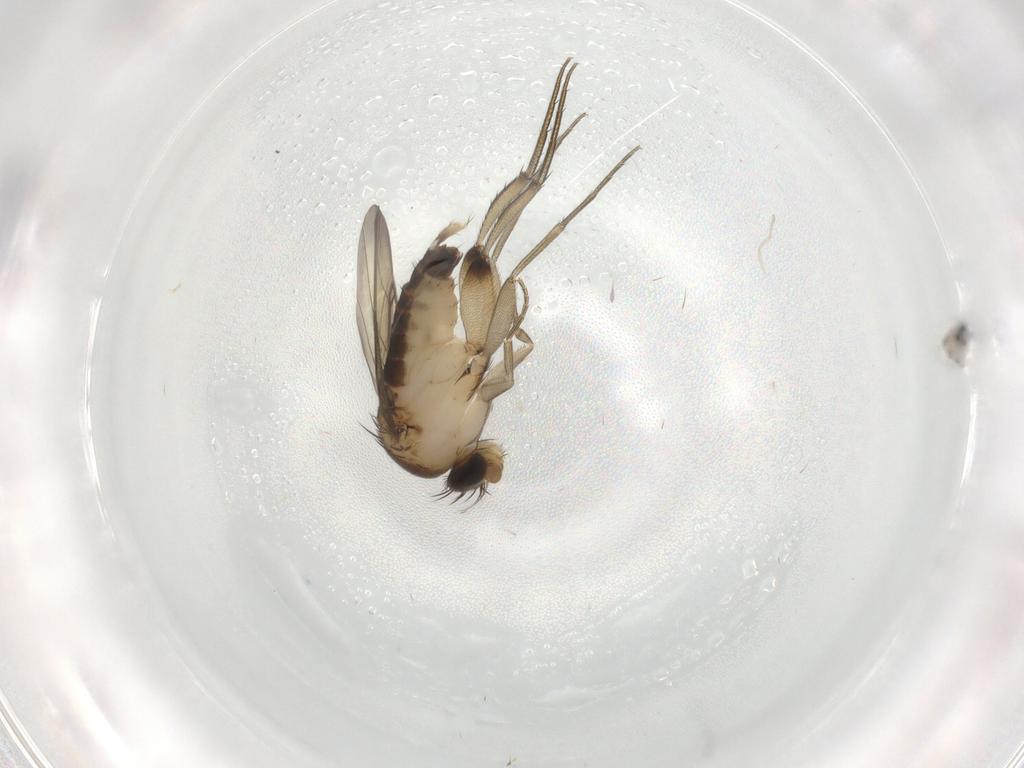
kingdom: Animalia
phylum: Arthropoda
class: Insecta
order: Diptera
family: Phoridae
